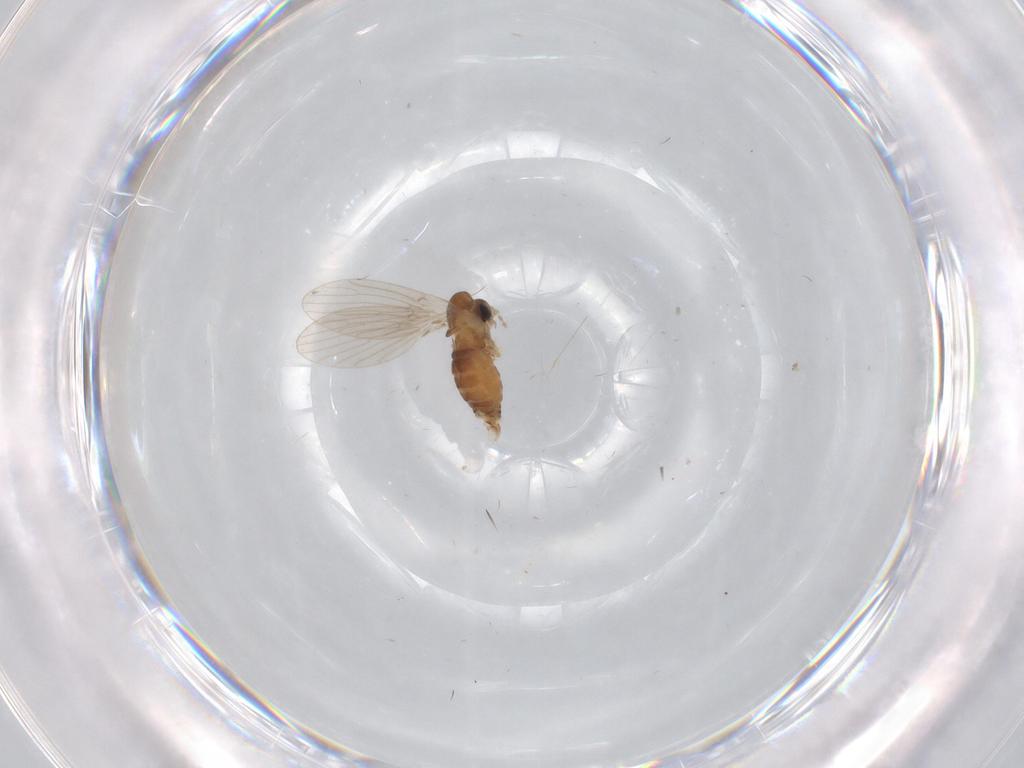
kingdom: Animalia
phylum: Arthropoda
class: Insecta
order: Diptera
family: Psychodidae
